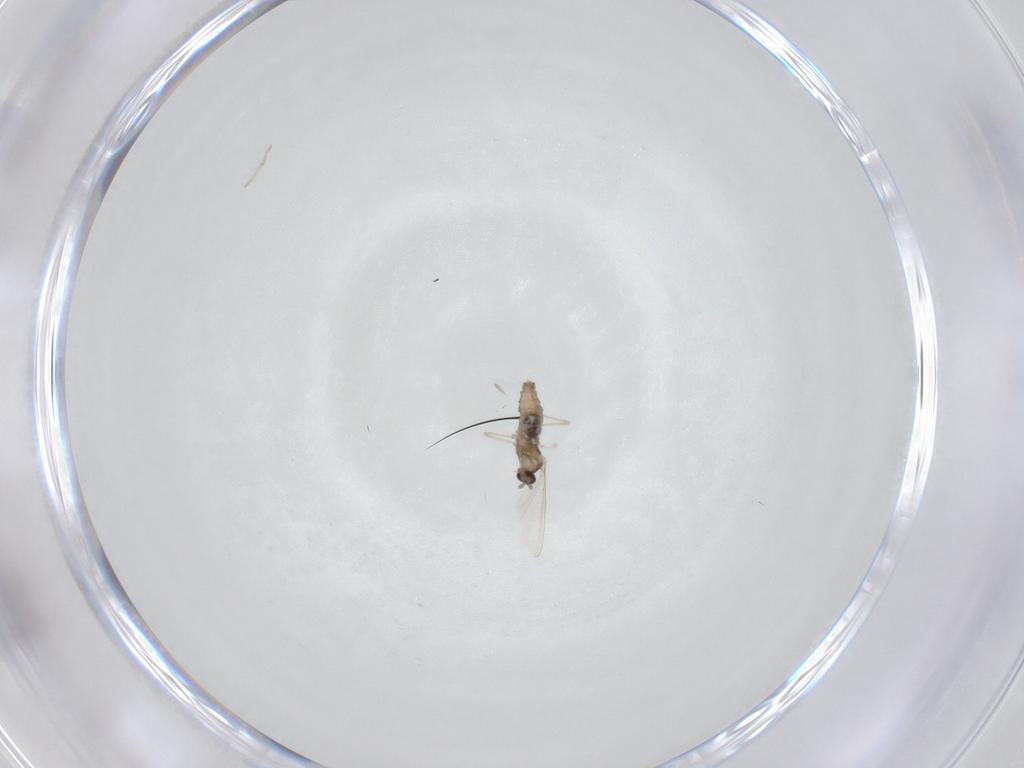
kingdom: Animalia
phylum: Arthropoda
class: Insecta
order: Diptera
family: Cecidomyiidae
